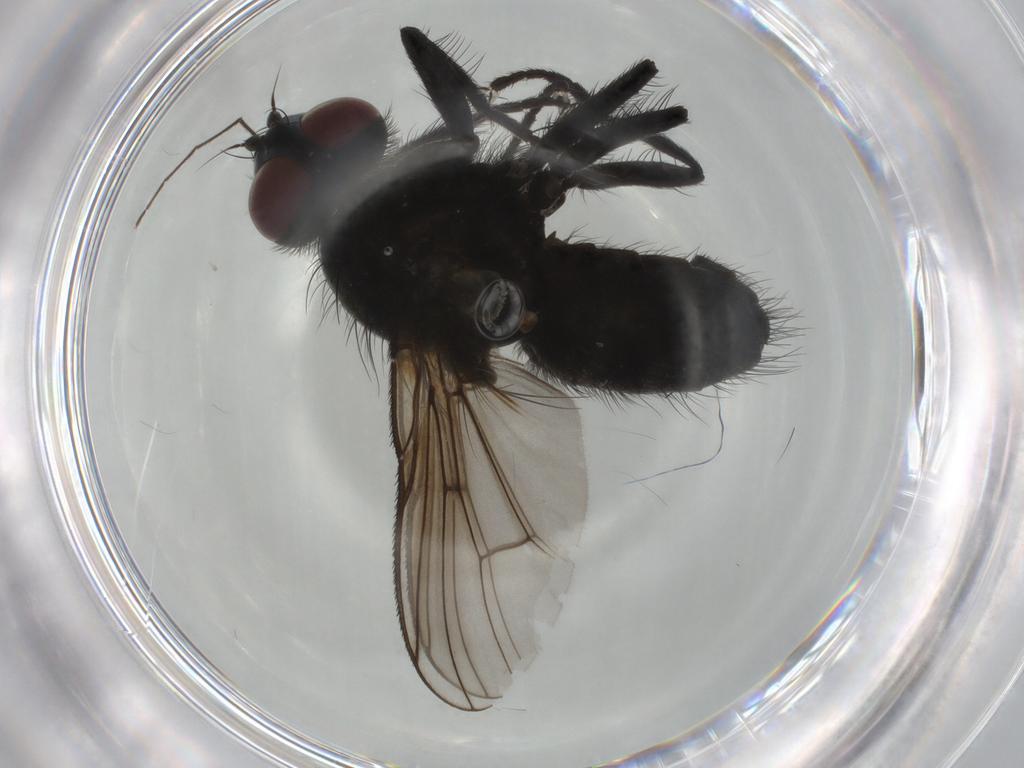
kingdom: Animalia
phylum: Arthropoda
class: Insecta
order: Diptera
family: Muscidae
